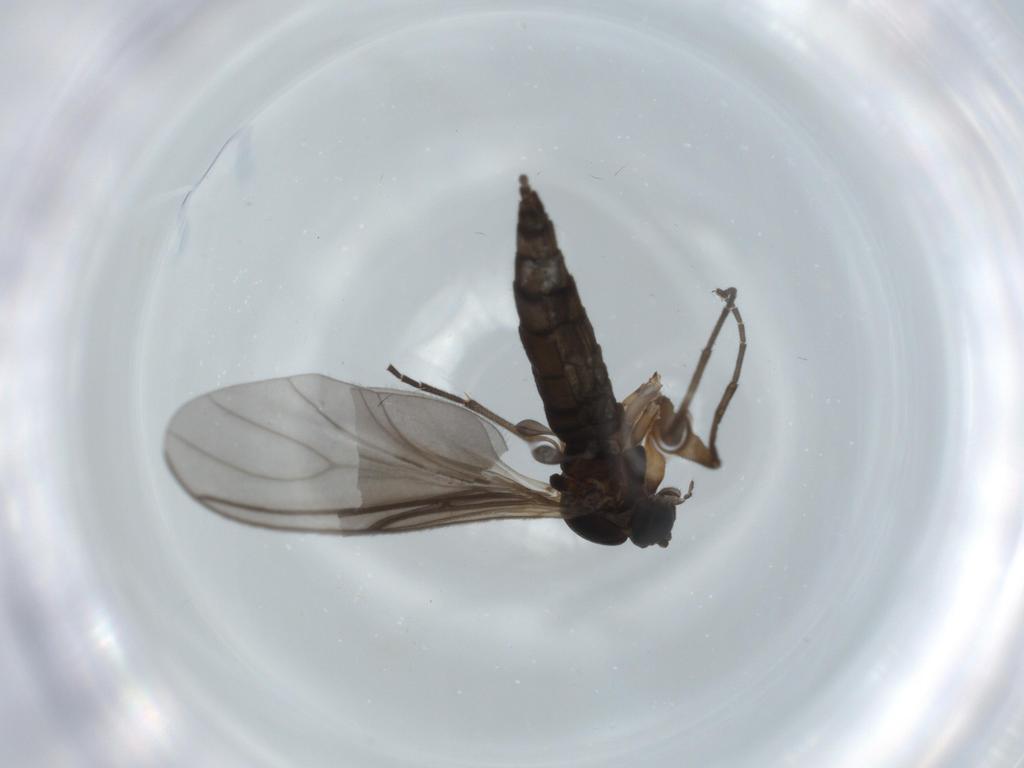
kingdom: Animalia
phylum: Arthropoda
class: Insecta
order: Diptera
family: Sciaridae
